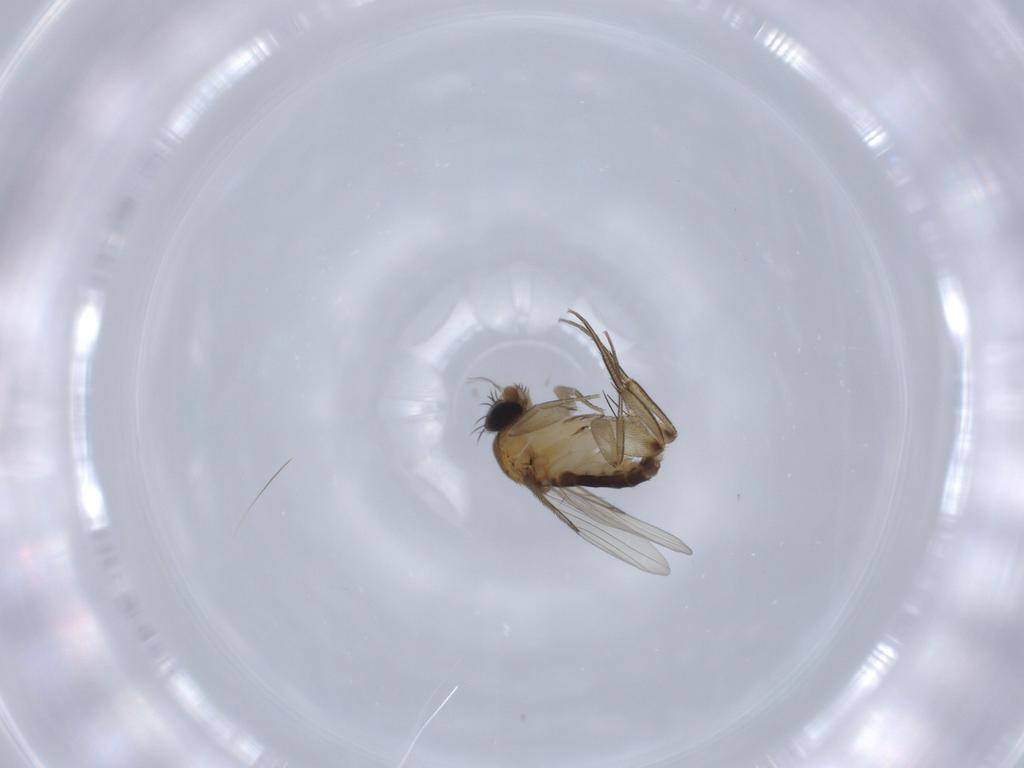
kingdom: Animalia
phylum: Arthropoda
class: Insecta
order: Diptera
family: Phoridae
